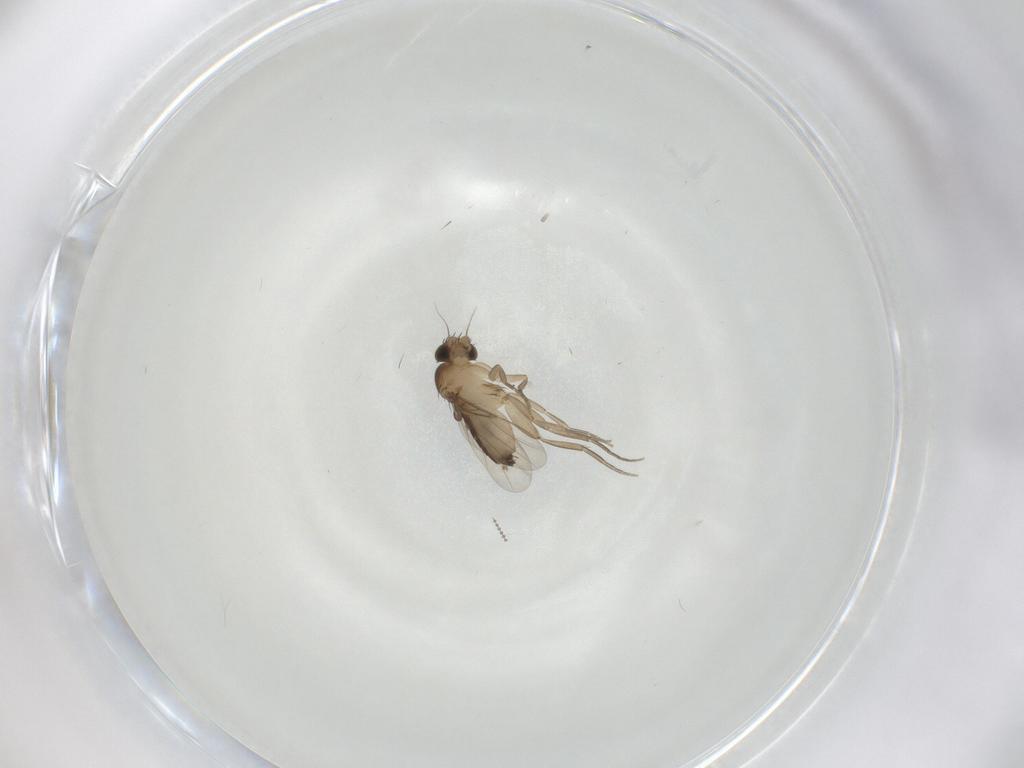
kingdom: Animalia
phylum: Arthropoda
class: Insecta
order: Diptera
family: Phoridae
